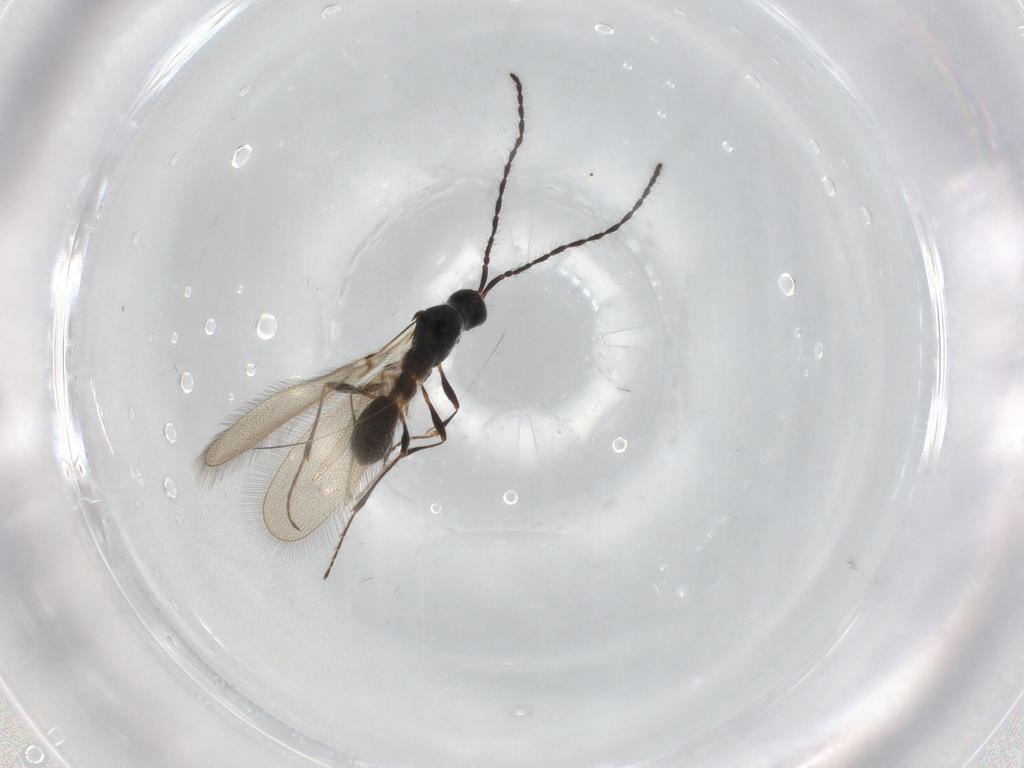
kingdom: Animalia
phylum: Arthropoda
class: Insecta
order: Hymenoptera
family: Diapriidae
